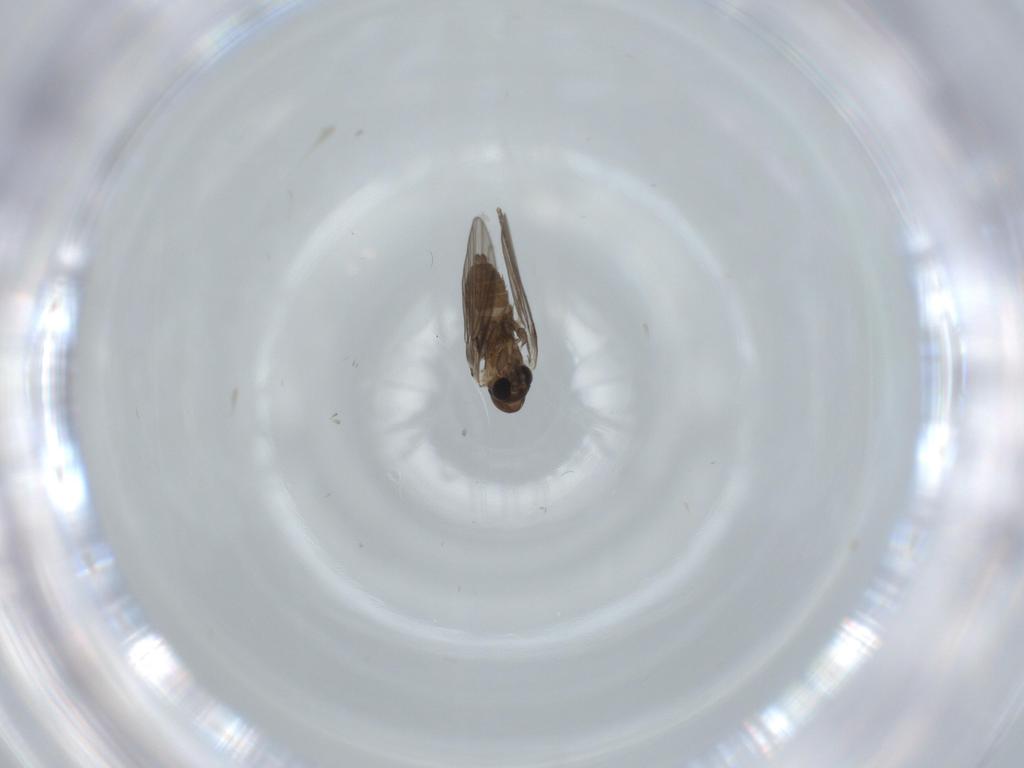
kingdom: Animalia
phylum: Arthropoda
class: Insecta
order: Diptera
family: Psychodidae
